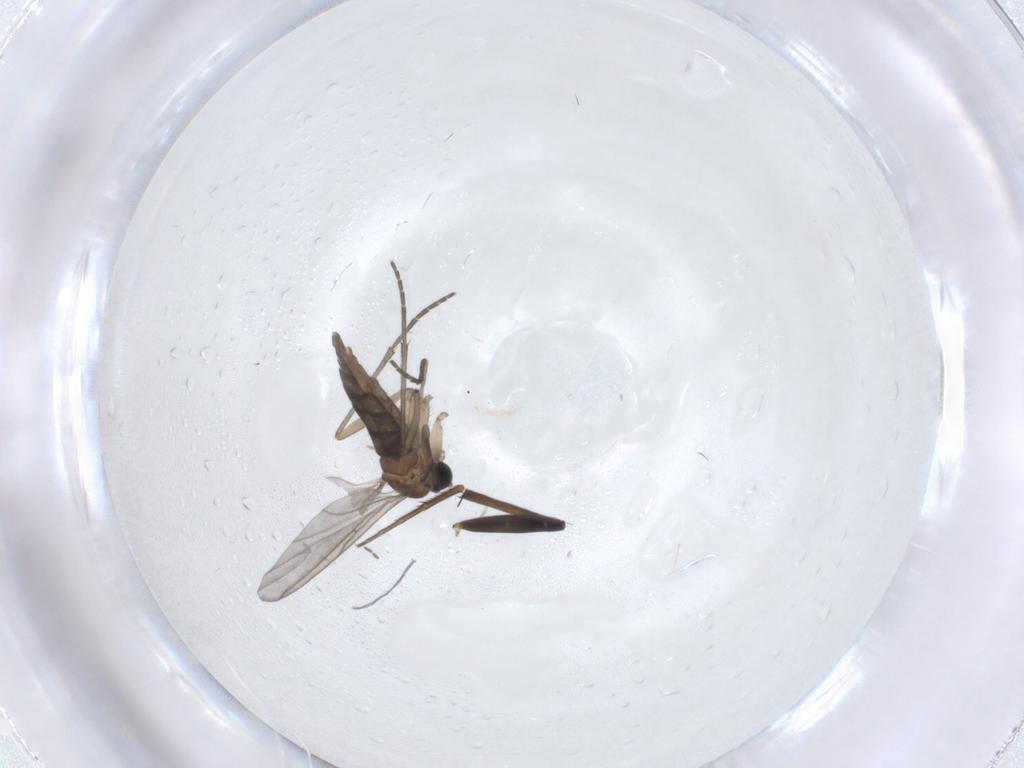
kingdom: Animalia
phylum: Arthropoda
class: Insecta
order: Diptera
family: Phoridae
